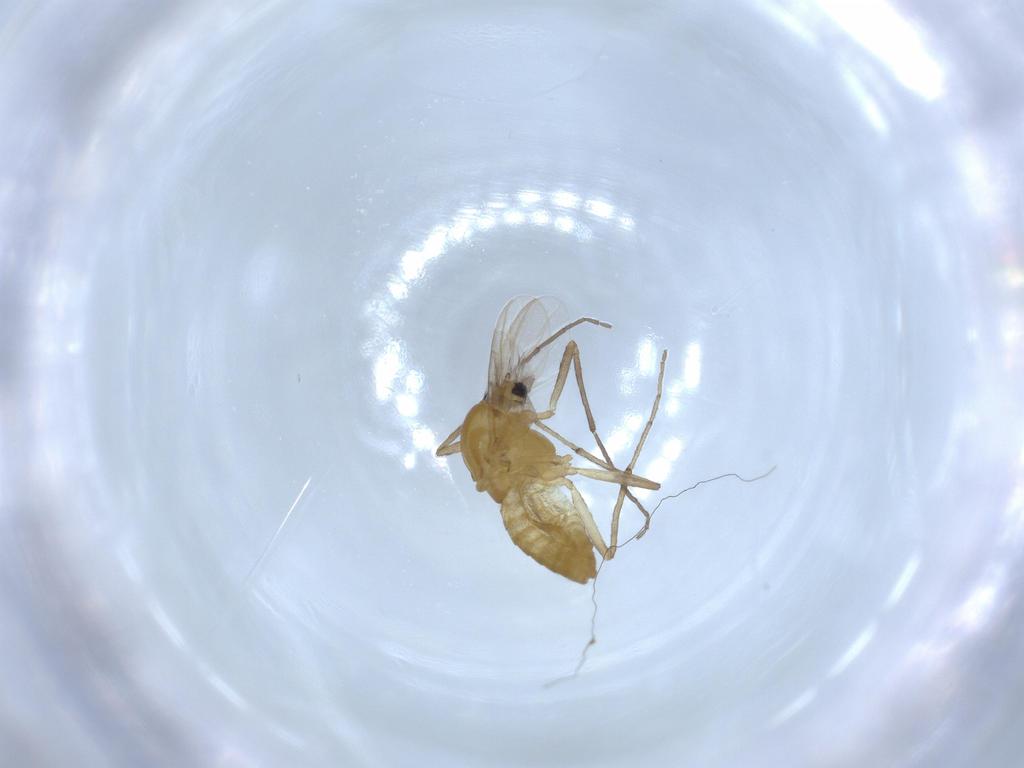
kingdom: Animalia
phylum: Arthropoda
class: Insecta
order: Diptera
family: Chironomidae
